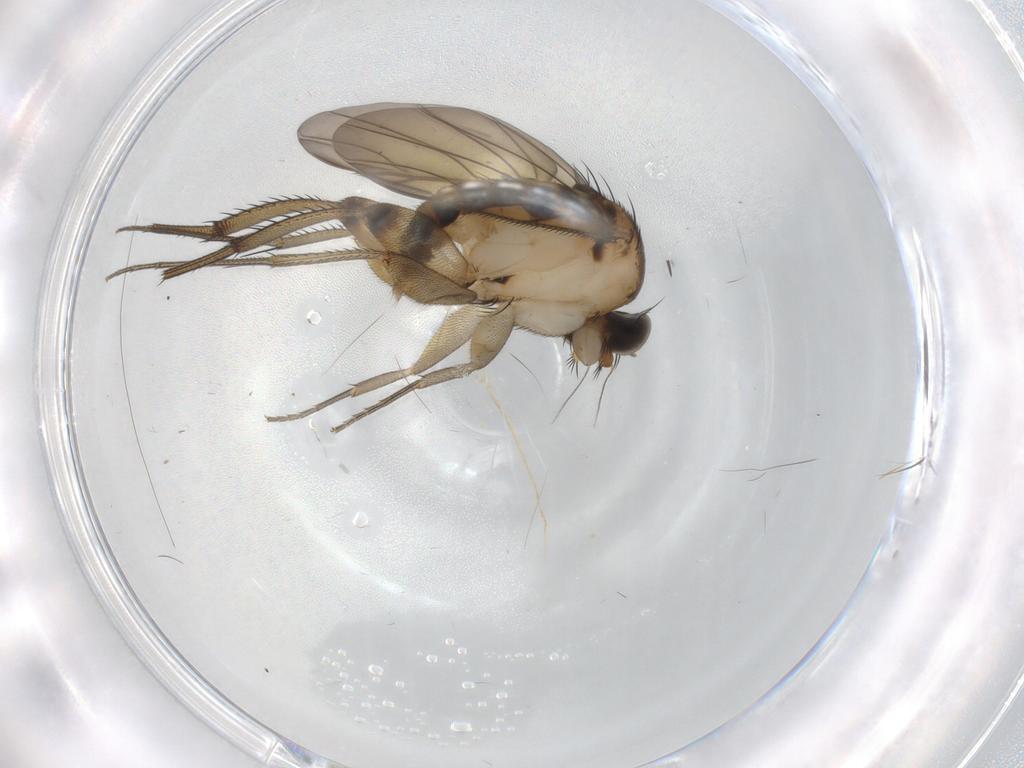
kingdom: Animalia
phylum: Arthropoda
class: Insecta
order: Diptera
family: Phoridae
